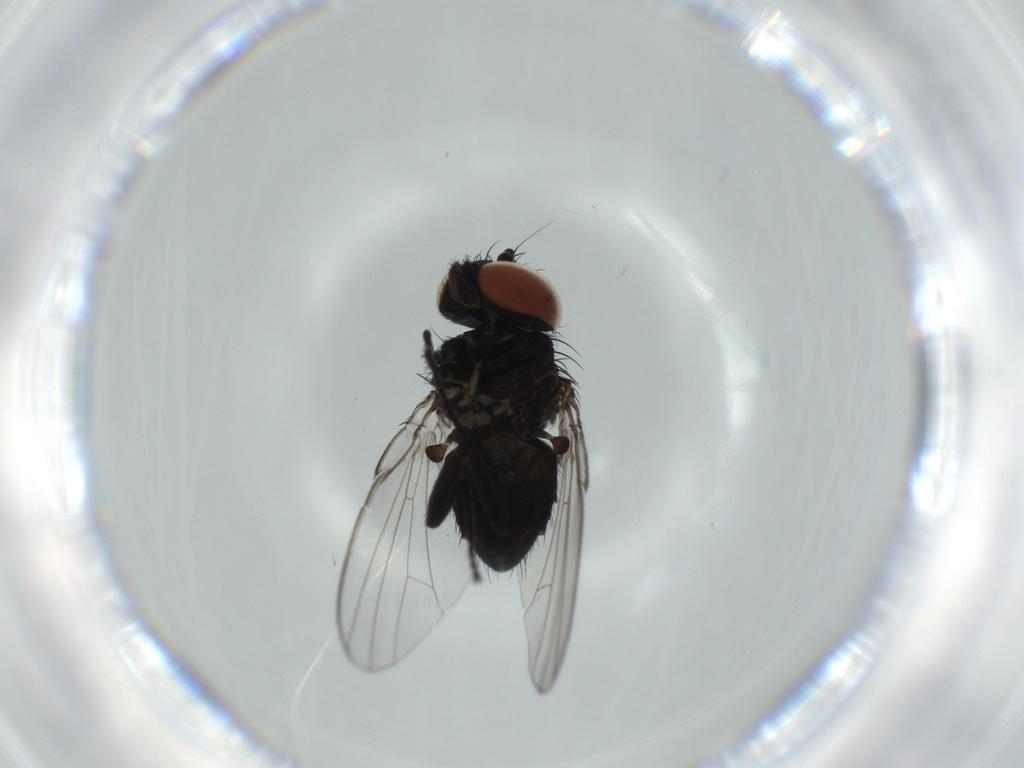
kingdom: Animalia
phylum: Arthropoda
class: Insecta
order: Diptera
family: Milichiidae
